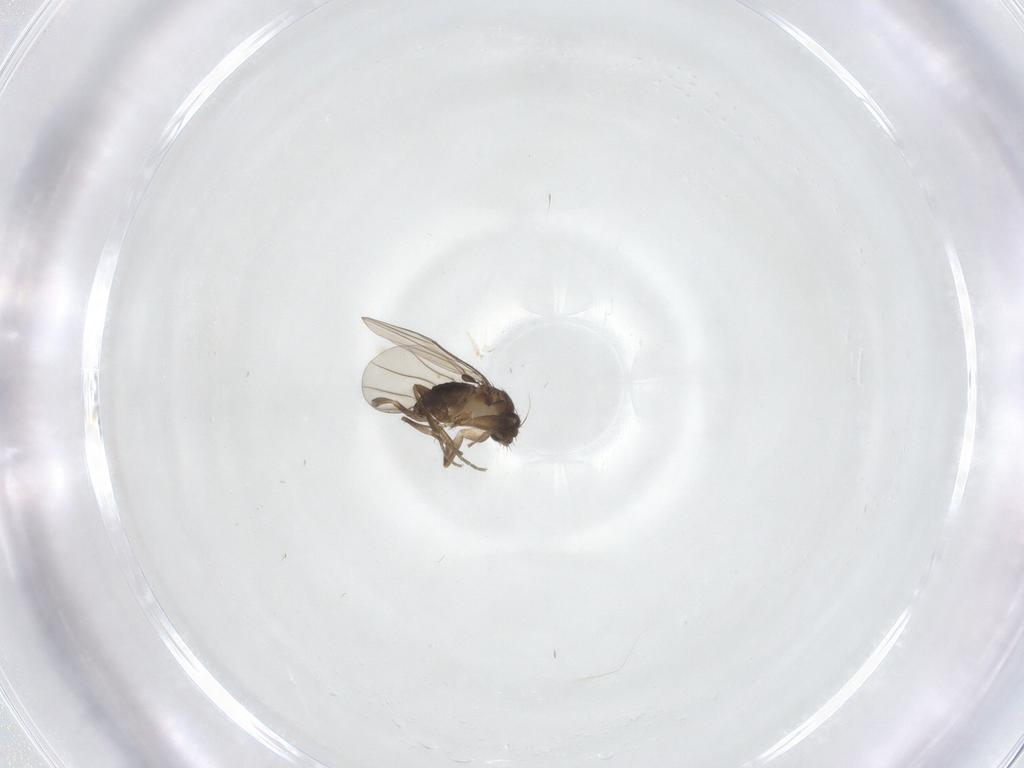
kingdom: Animalia
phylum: Arthropoda
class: Insecta
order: Diptera
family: Phoridae
